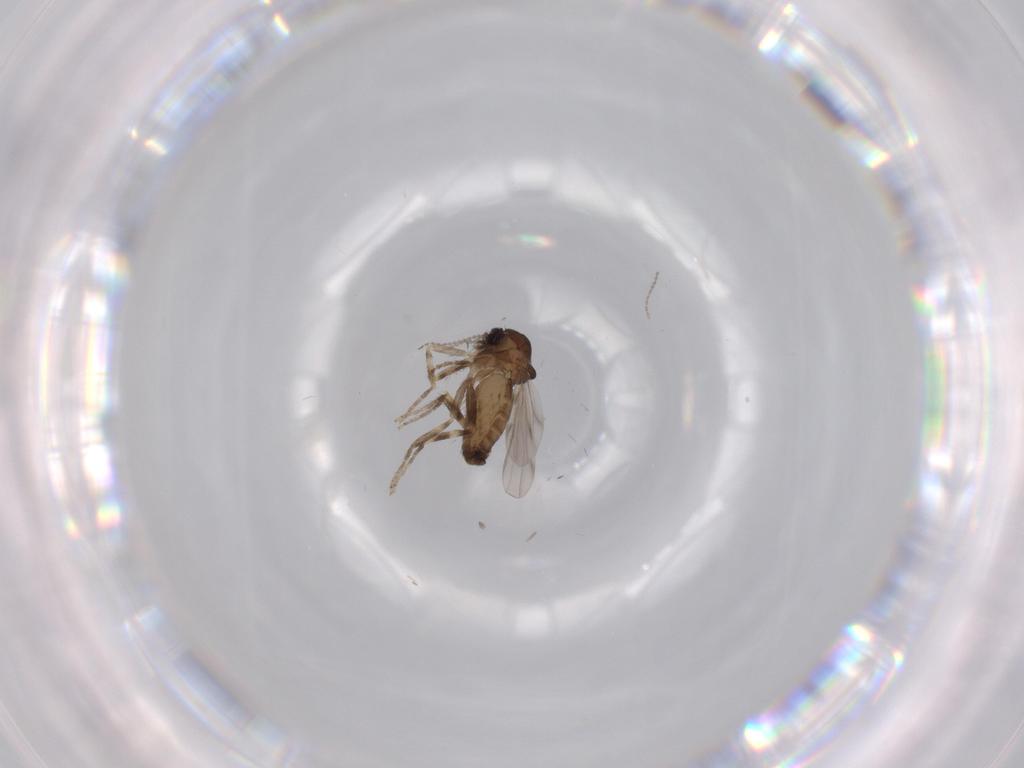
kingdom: Animalia
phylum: Arthropoda
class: Insecta
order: Diptera
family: Ceratopogonidae
